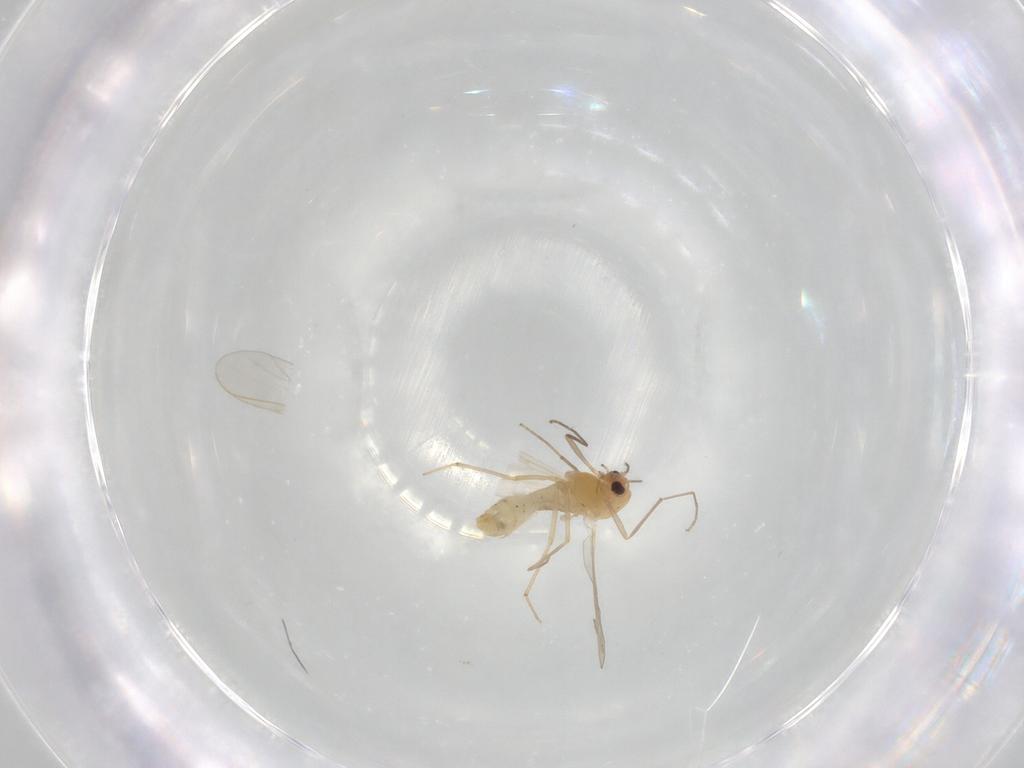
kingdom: Animalia
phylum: Arthropoda
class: Insecta
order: Diptera
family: Chironomidae
